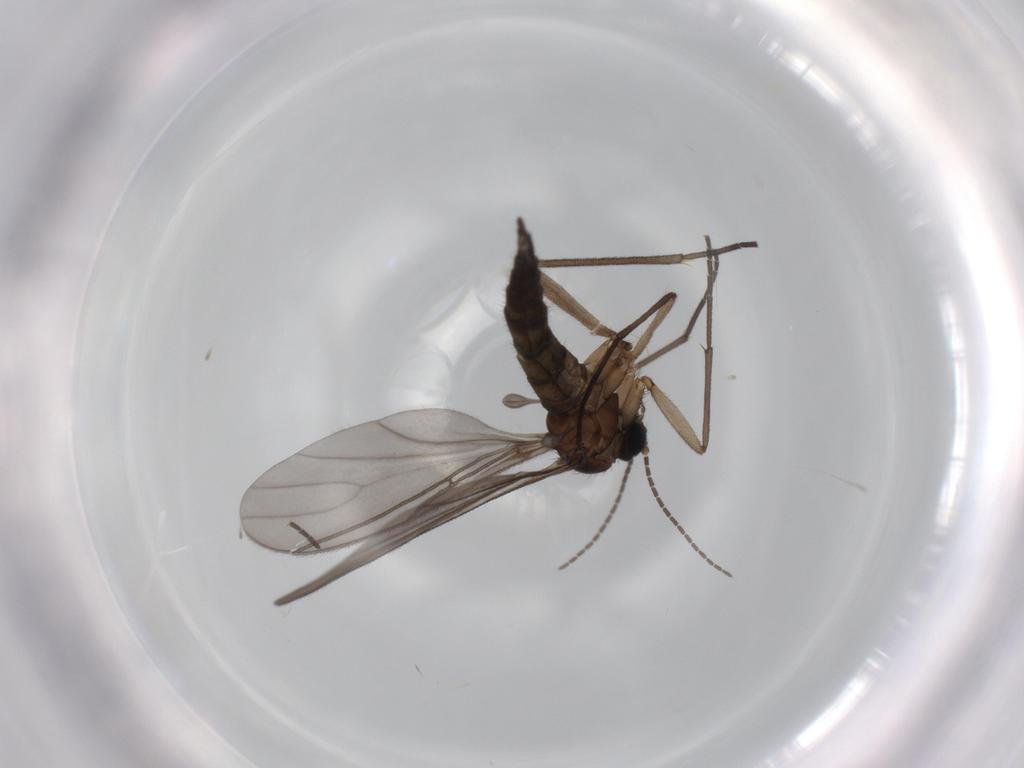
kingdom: Animalia
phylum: Arthropoda
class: Insecta
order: Diptera
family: Sciaridae
